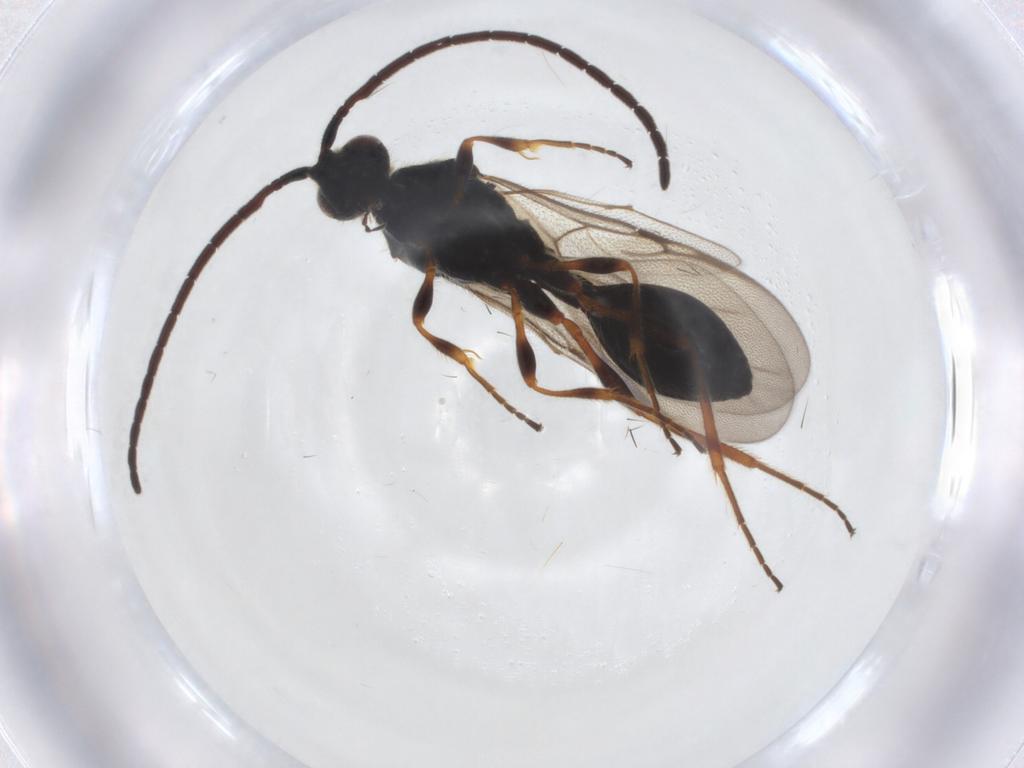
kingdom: Animalia
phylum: Arthropoda
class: Insecta
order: Hymenoptera
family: Diapriidae
